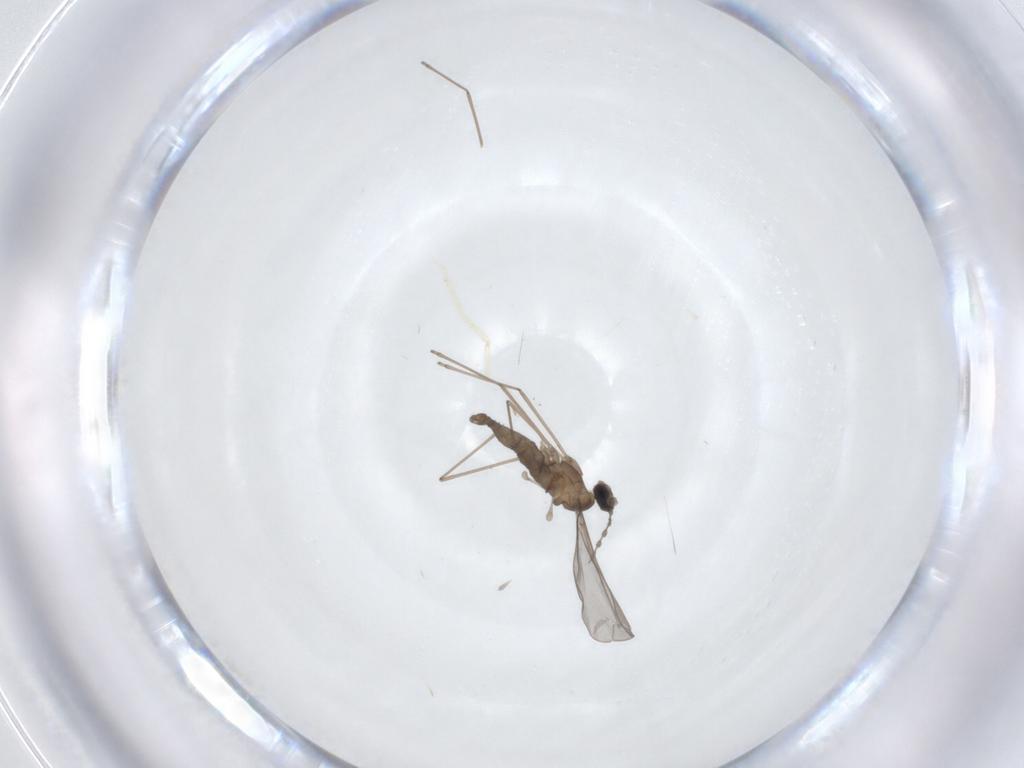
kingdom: Animalia
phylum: Arthropoda
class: Insecta
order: Diptera
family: Cecidomyiidae
